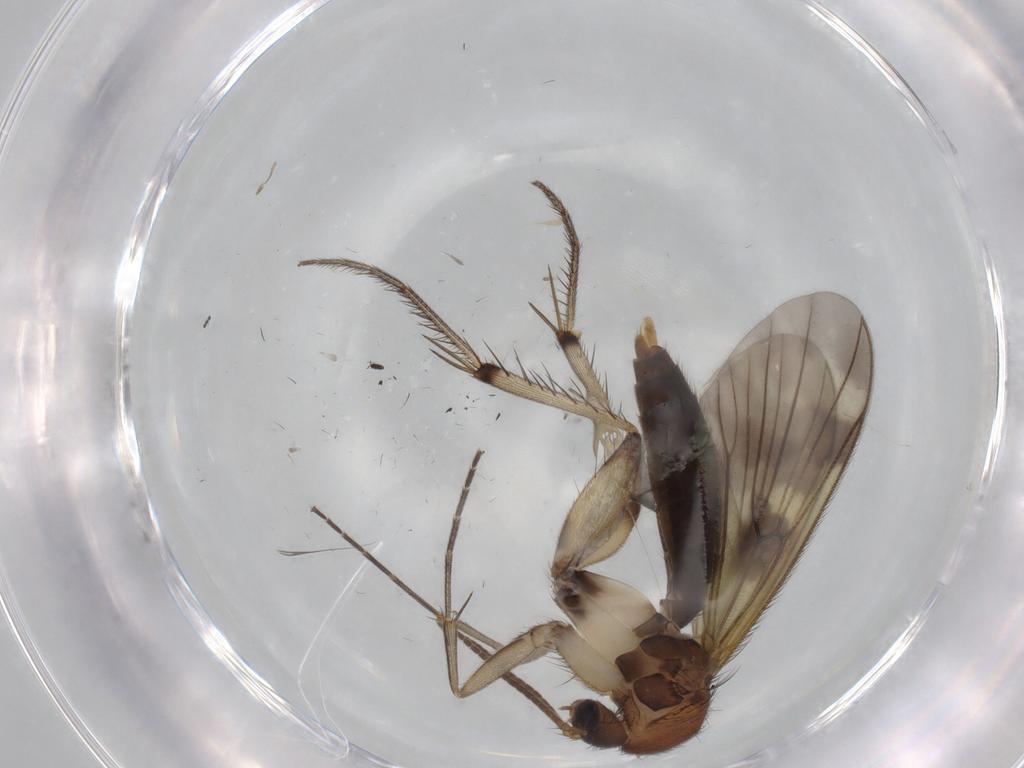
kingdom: Animalia
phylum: Arthropoda
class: Insecta
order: Diptera
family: Mycetophilidae
